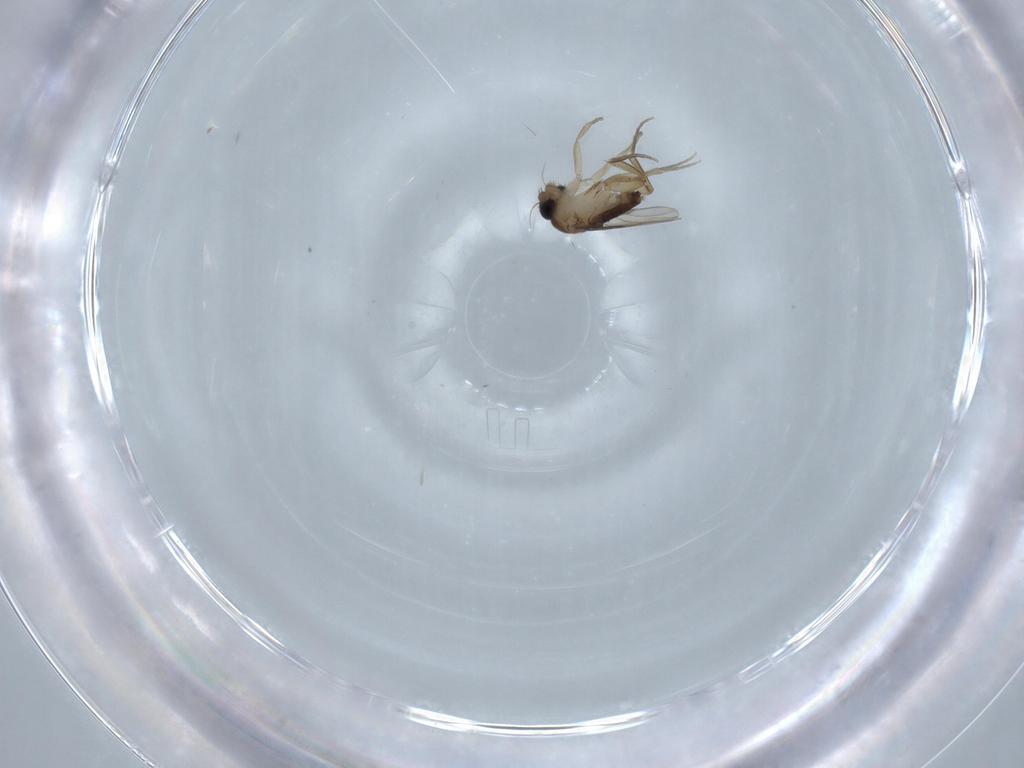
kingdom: Animalia
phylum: Arthropoda
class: Insecta
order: Diptera
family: Phoridae
